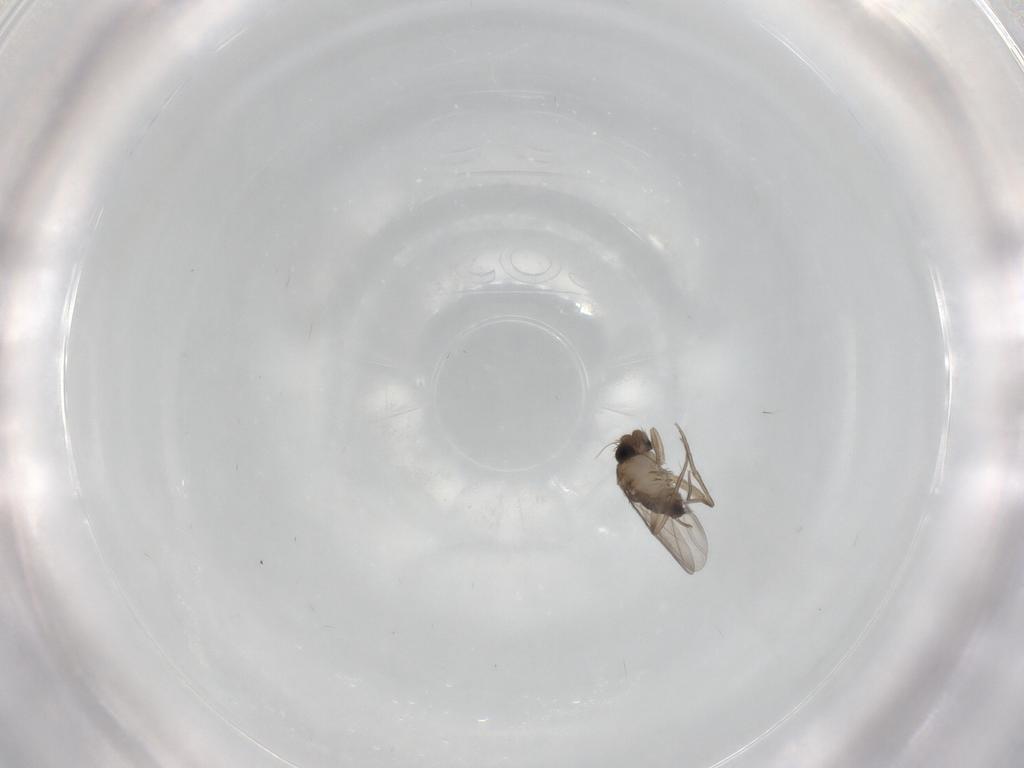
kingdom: Animalia
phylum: Arthropoda
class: Insecta
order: Diptera
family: Phoridae
